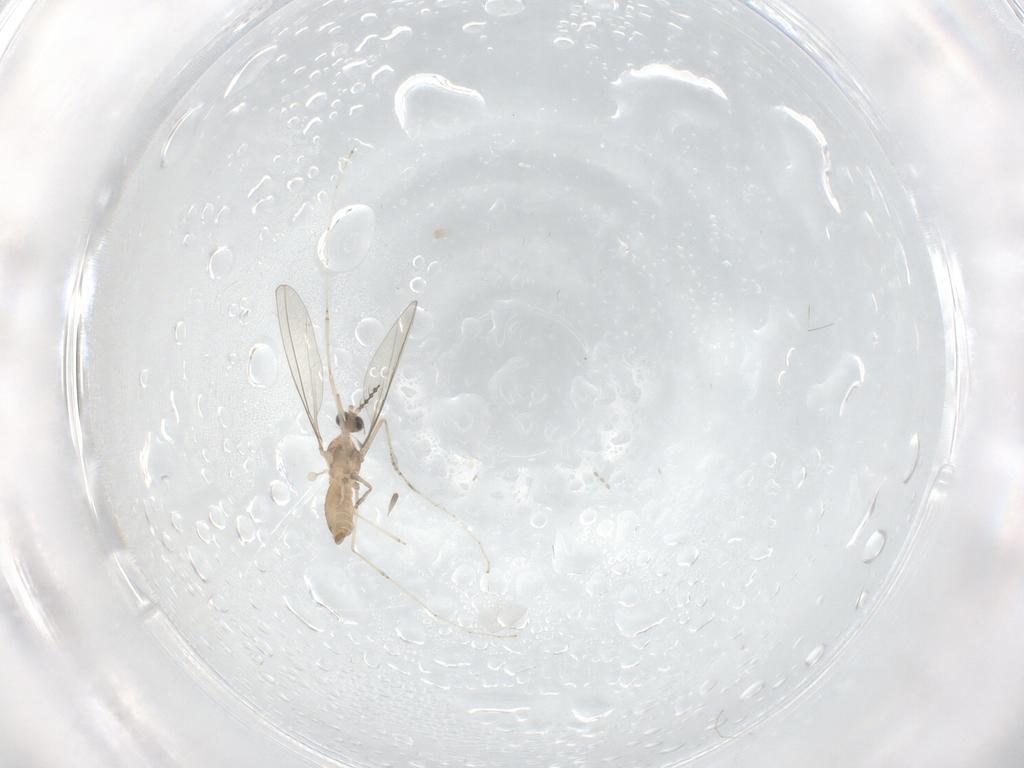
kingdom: Animalia
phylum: Arthropoda
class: Insecta
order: Diptera
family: Cecidomyiidae
